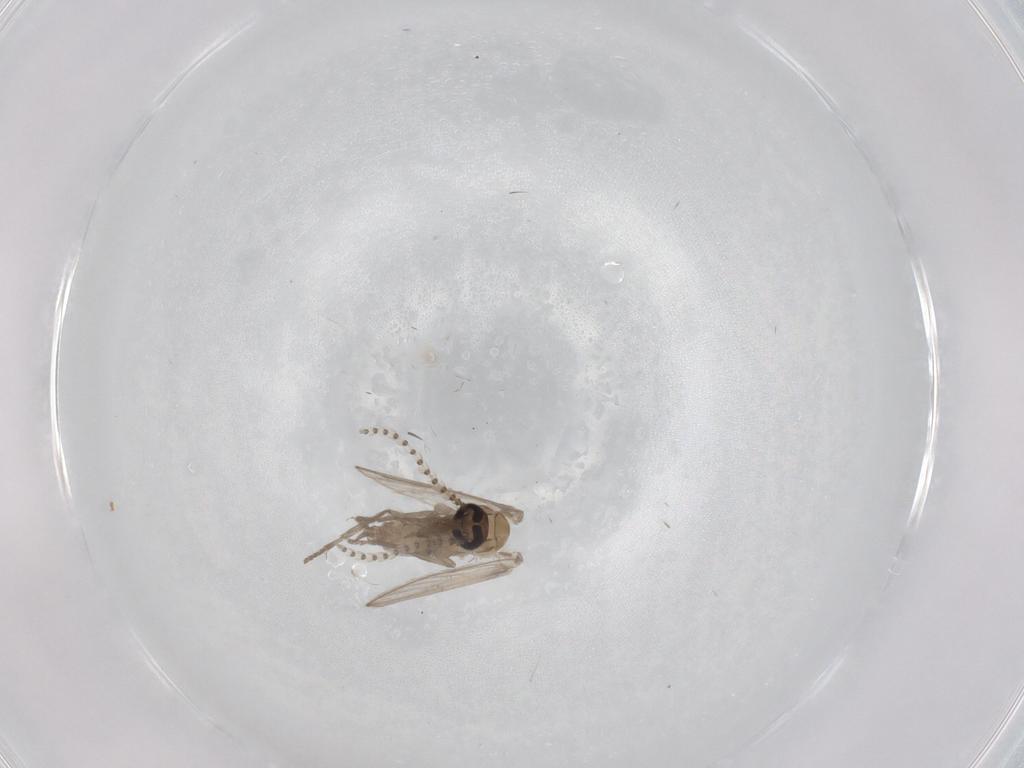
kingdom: Animalia
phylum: Arthropoda
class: Insecta
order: Diptera
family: Psychodidae
